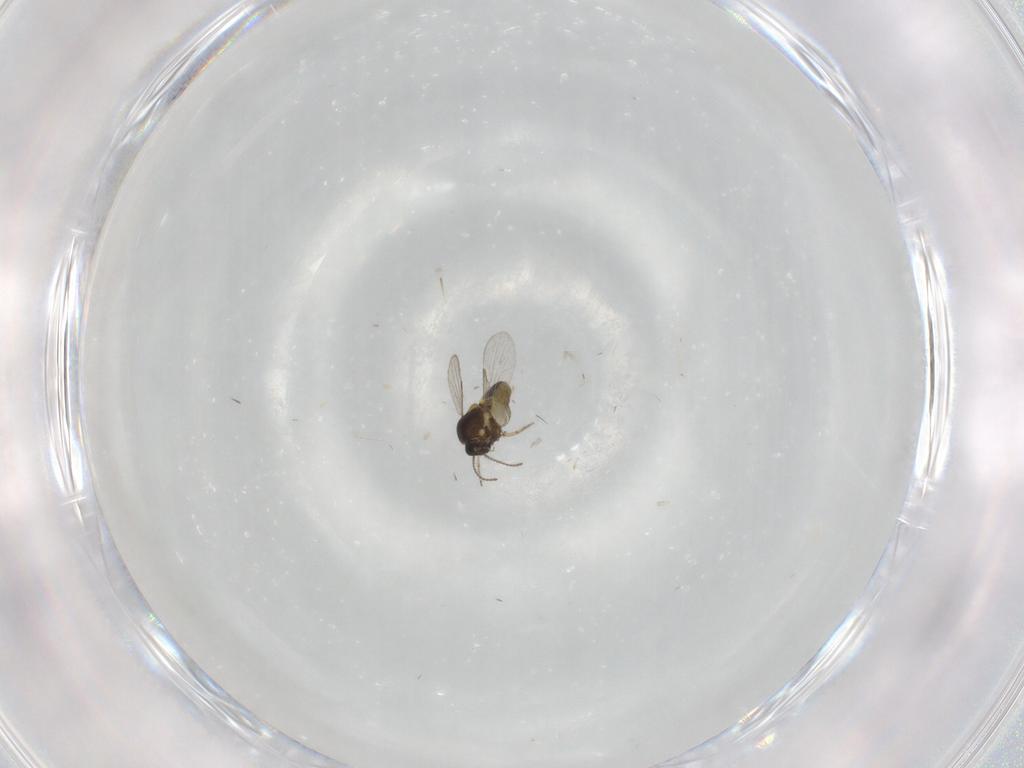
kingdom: Animalia
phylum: Arthropoda
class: Insecta
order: Diptera
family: Ceratopogonidae
